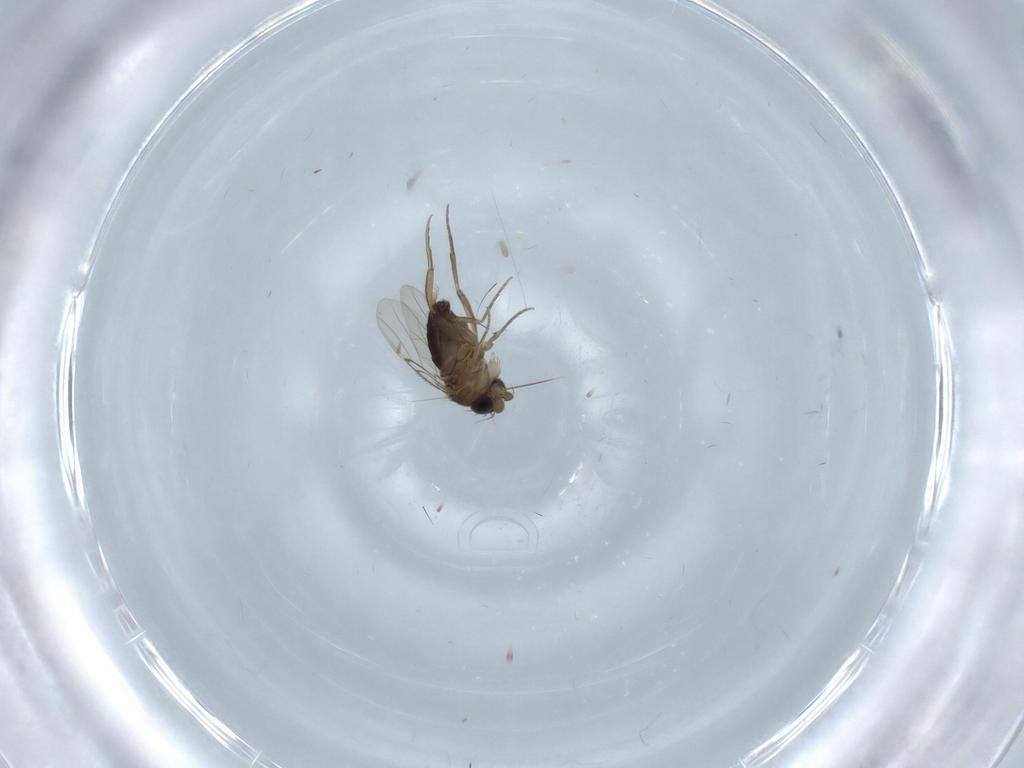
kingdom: Animalia
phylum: Arthropoda
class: Insecta
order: Diptera
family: Phoridae
